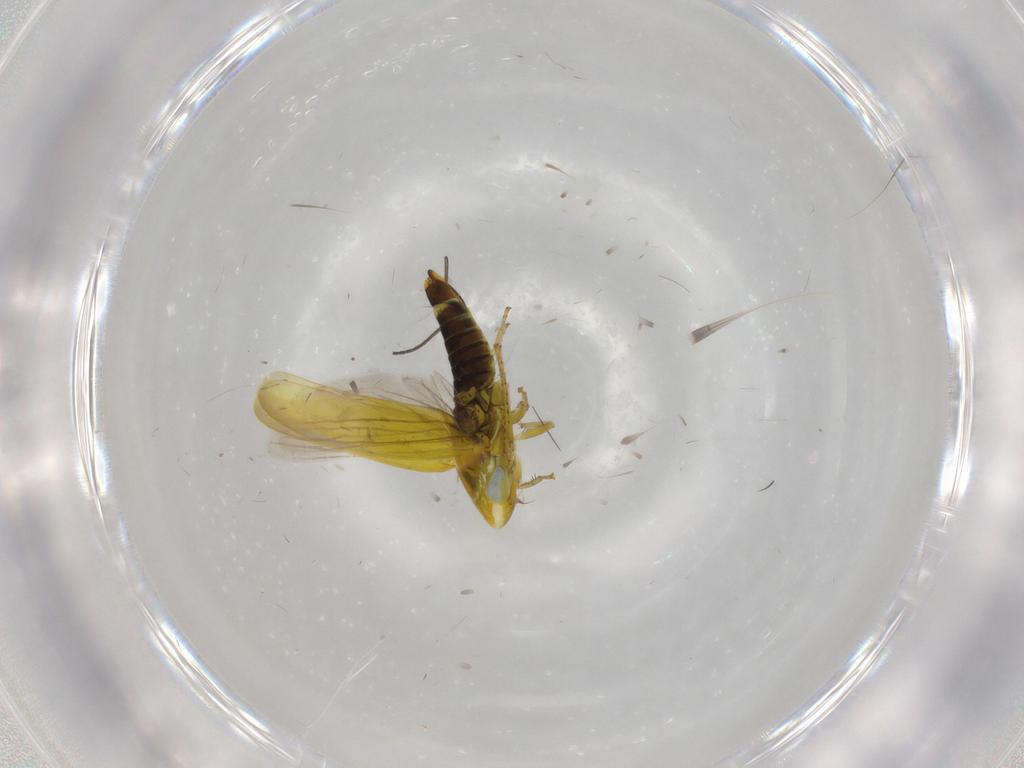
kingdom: Animalia
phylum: Arthropoda
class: Insecta
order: Hemiptera
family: Cicadellidae
